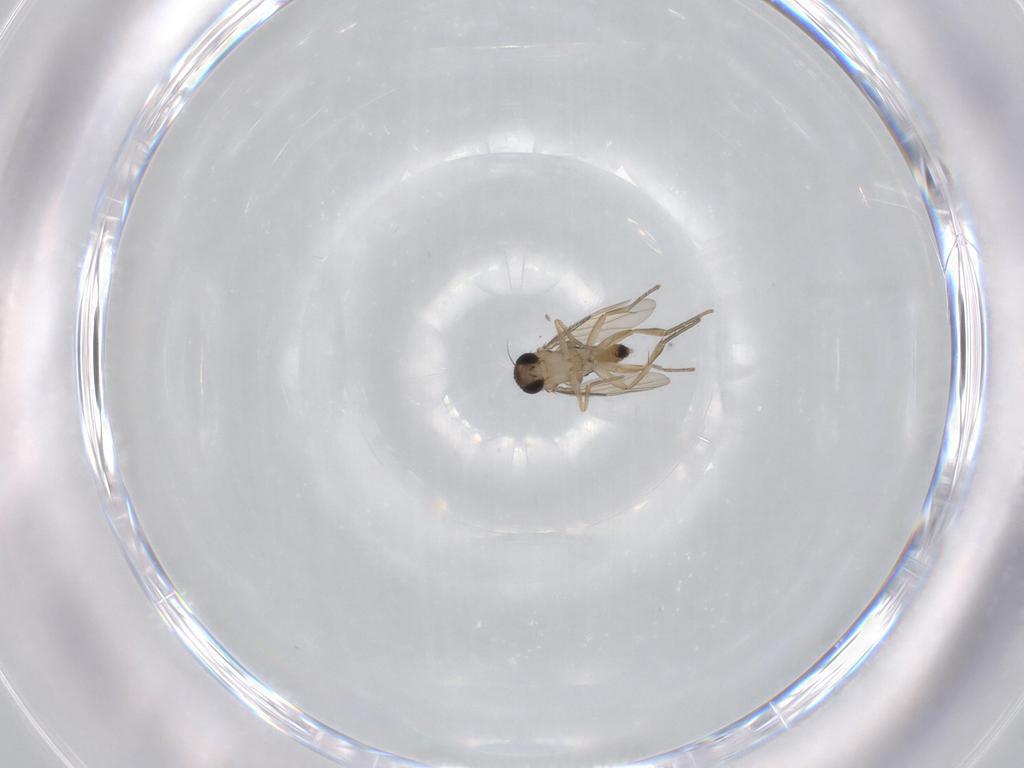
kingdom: Animalia
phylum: Arthropoda
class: Insecta
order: Diptera
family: Phoridae
